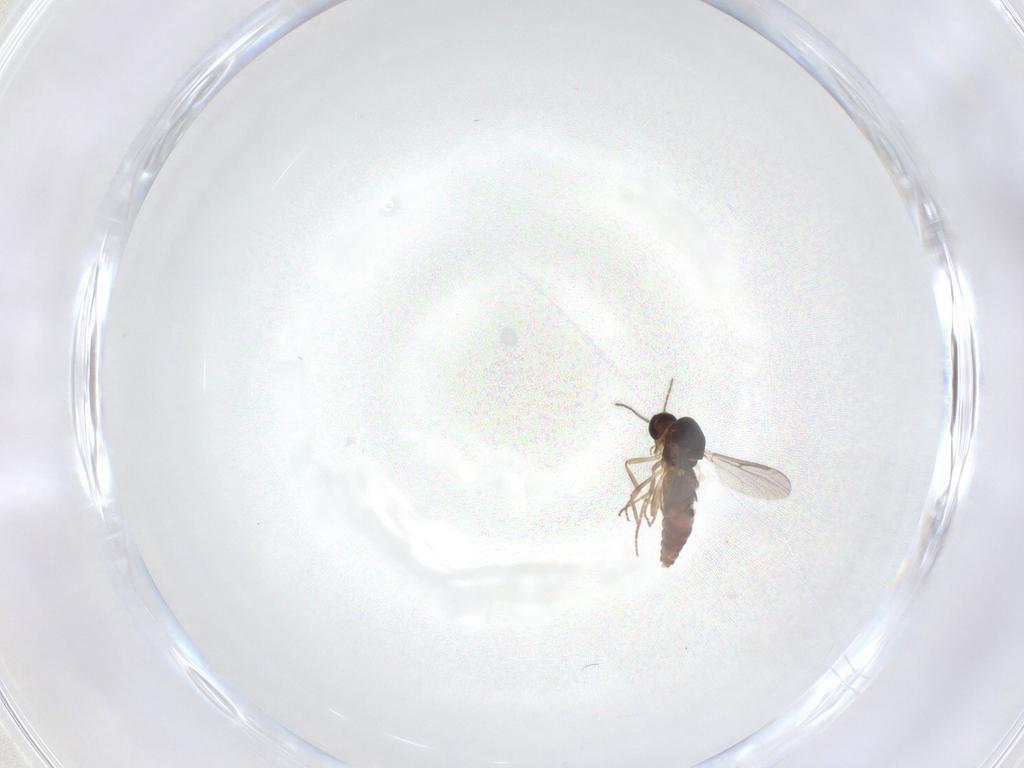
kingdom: Animalia
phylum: Arthropoda
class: Insecta
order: Diptera
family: Ceratopogonidae
